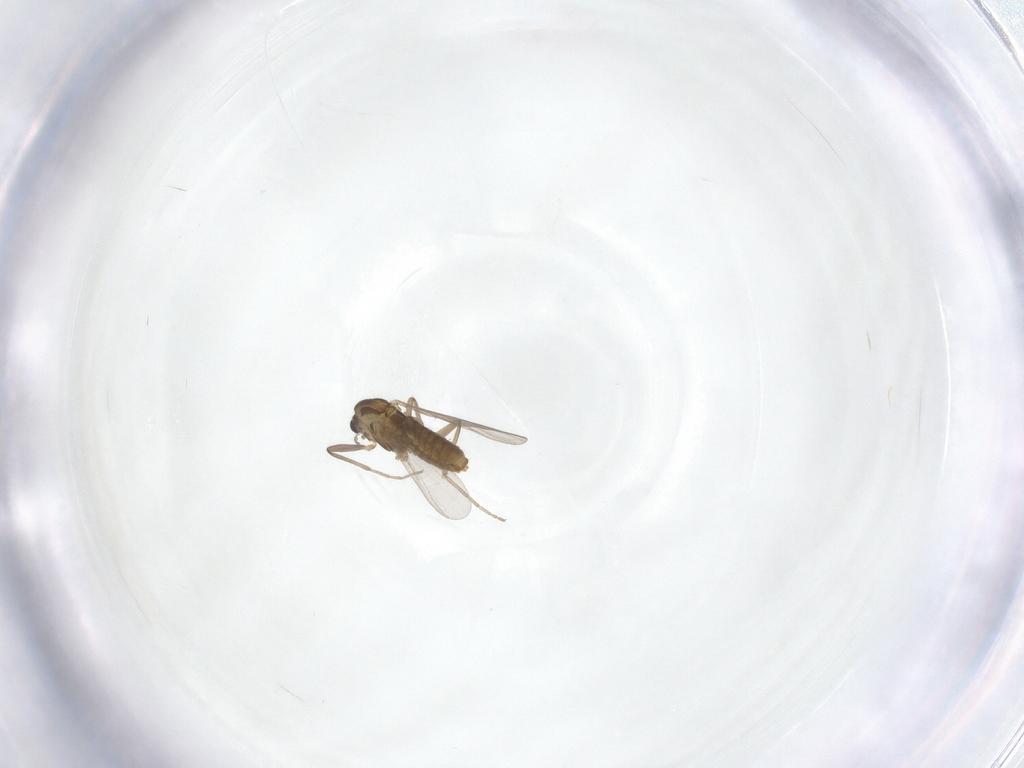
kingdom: Animalia
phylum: Arthropoda
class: Insecta
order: Diptera
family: Chironomidae
